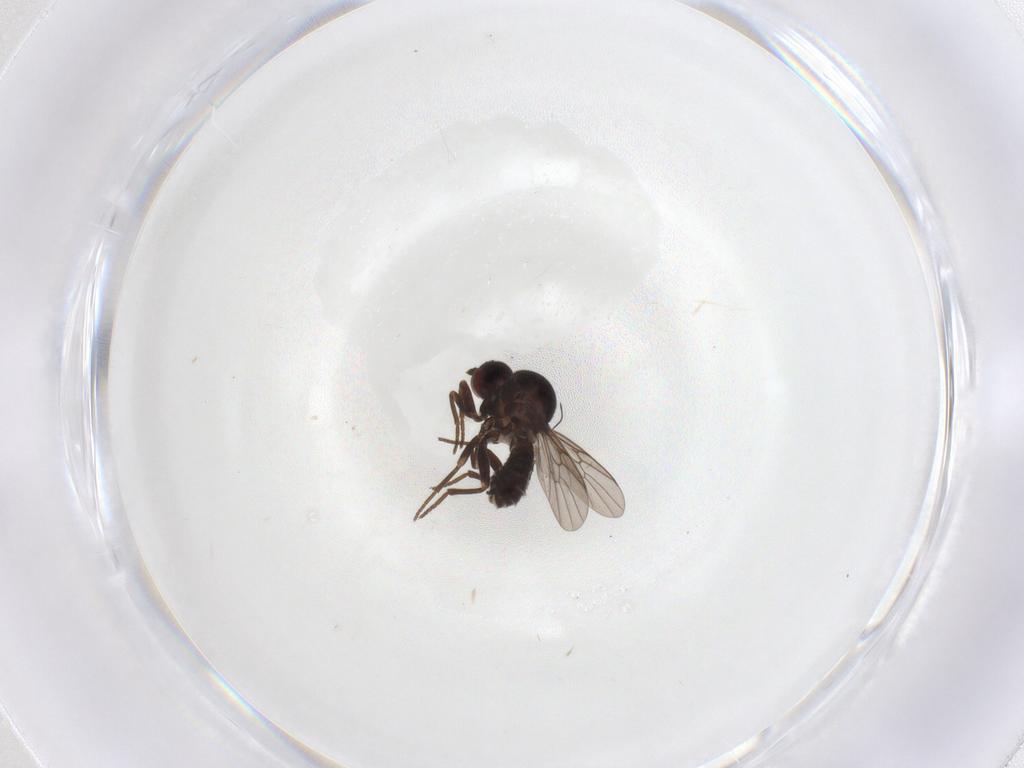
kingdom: Animalia
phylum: Arthropoda
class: Insecta
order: Diptera
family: Bombyliidae
